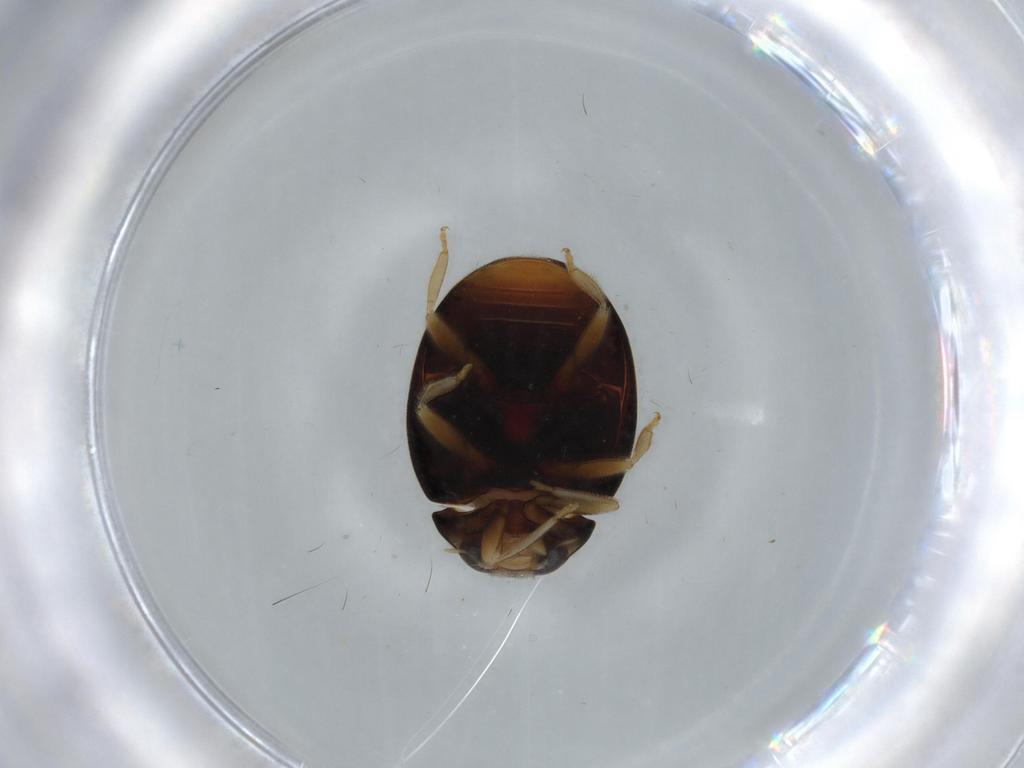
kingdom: Animalia
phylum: Arthropoda
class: Insecta
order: Coleoptera
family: Coccinellidae
